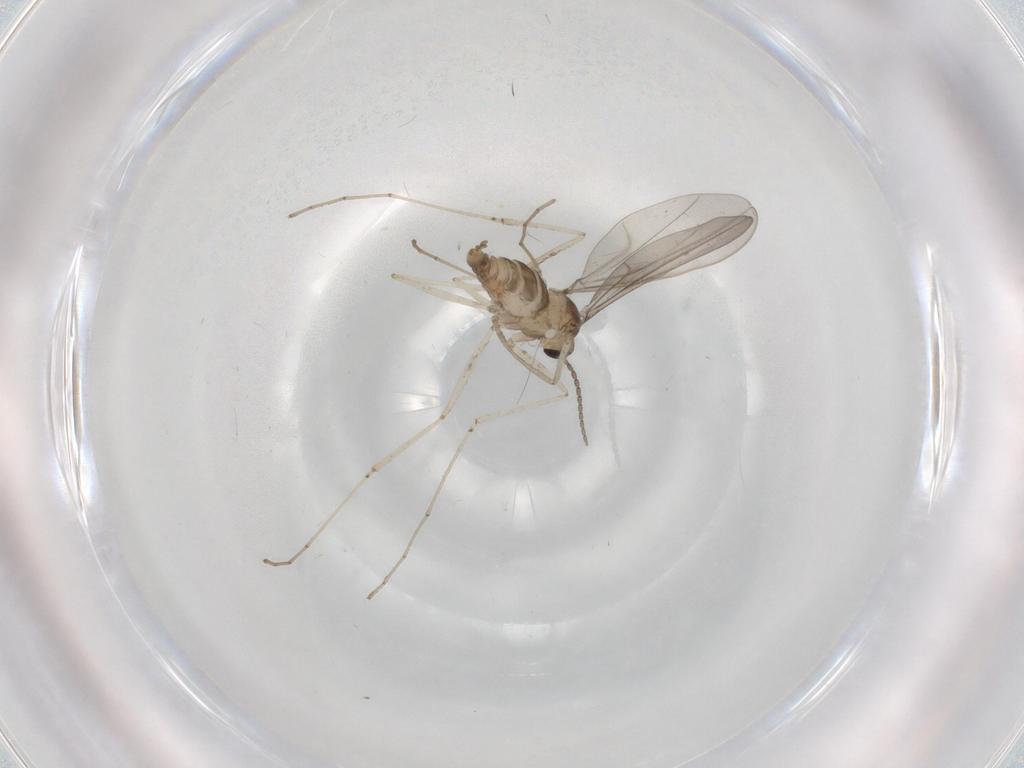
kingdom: Animalia
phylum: Arthropoda
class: Insecta
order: Diptera
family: Cecidomyiidae
